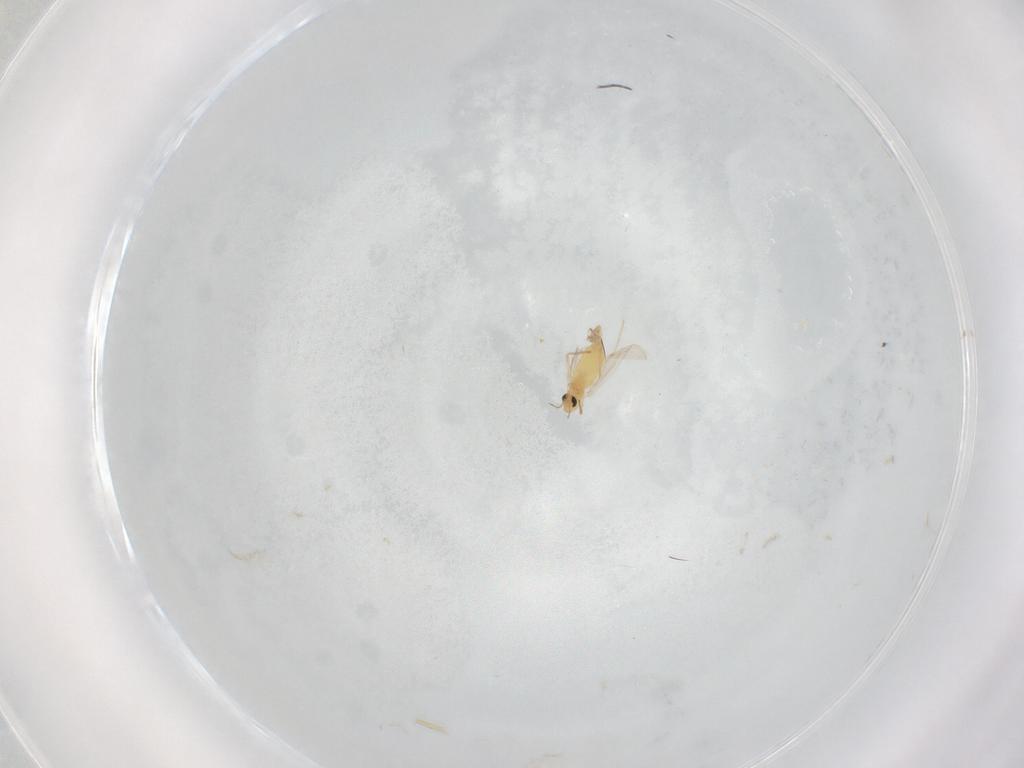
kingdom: Animalia
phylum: Arthropoda
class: Insecta
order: Diptera
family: Chironomidae
